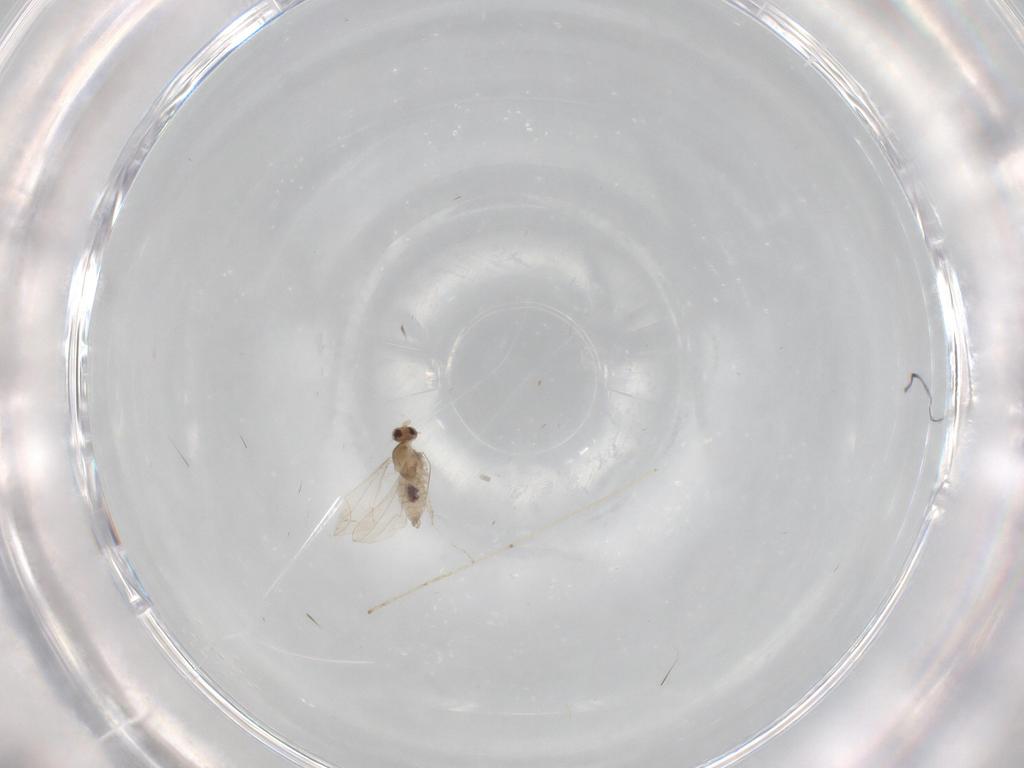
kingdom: Animalia
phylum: Arthropoda
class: Insecta
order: Diptera
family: Cecidomyiidae
